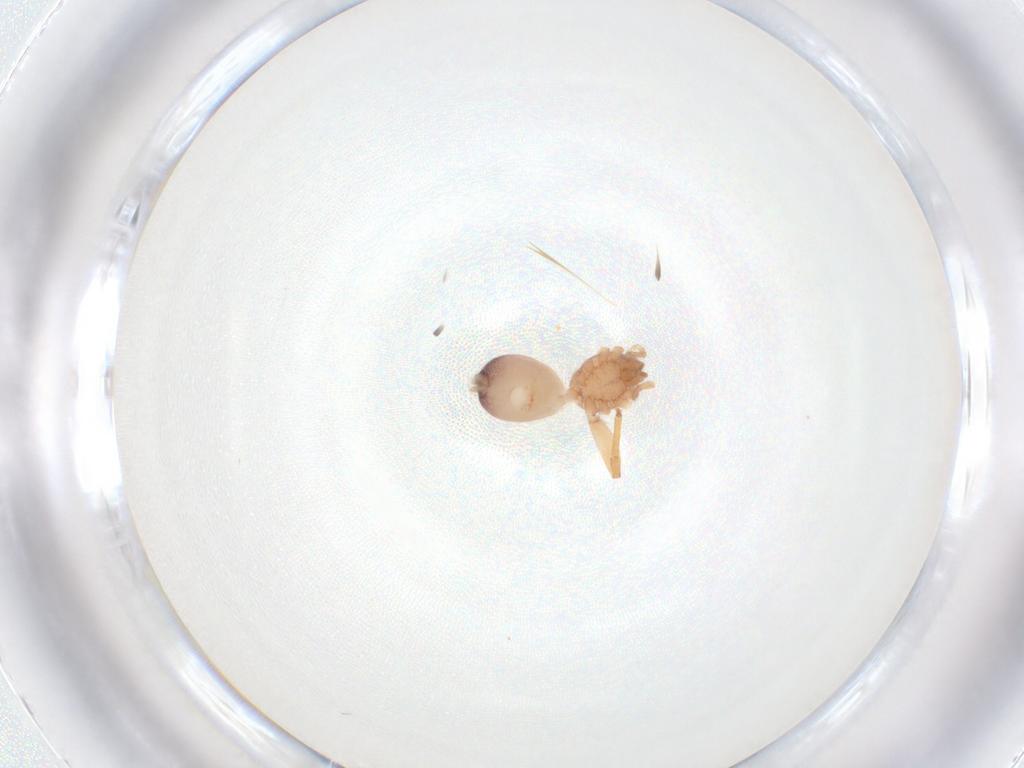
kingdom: Animalia
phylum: Arthropoda
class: Arachnida
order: Araneae
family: Idiopidae
